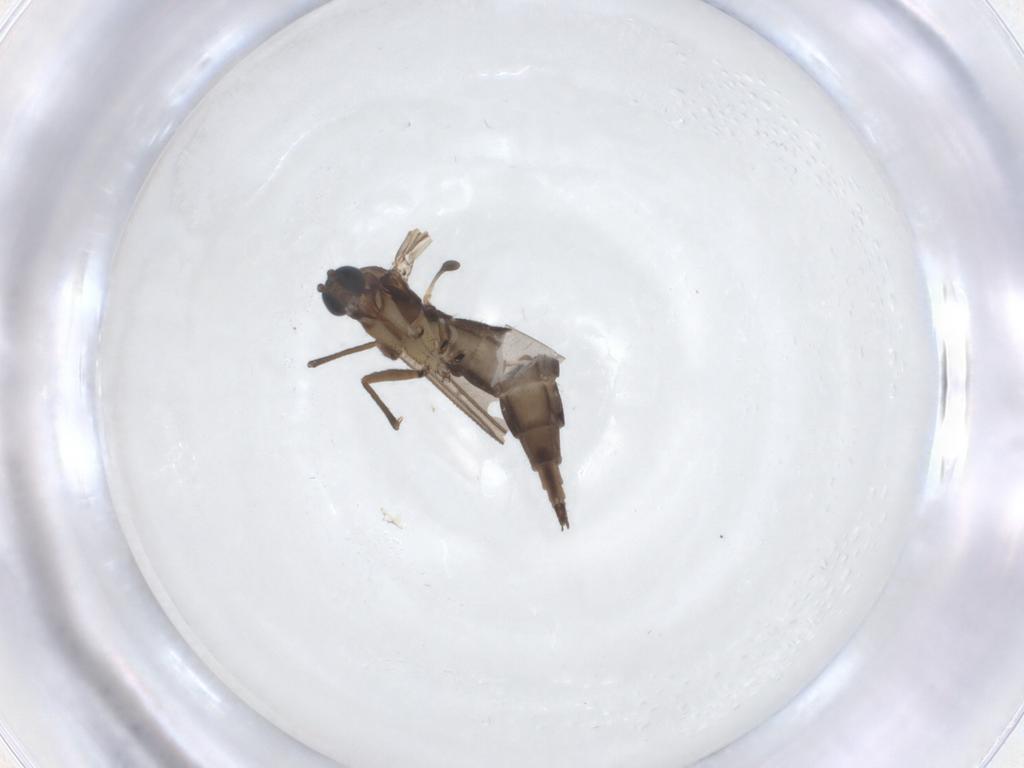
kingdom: Animalia
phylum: Arthropoda
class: Insecta
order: Diptera
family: Sciaridae
